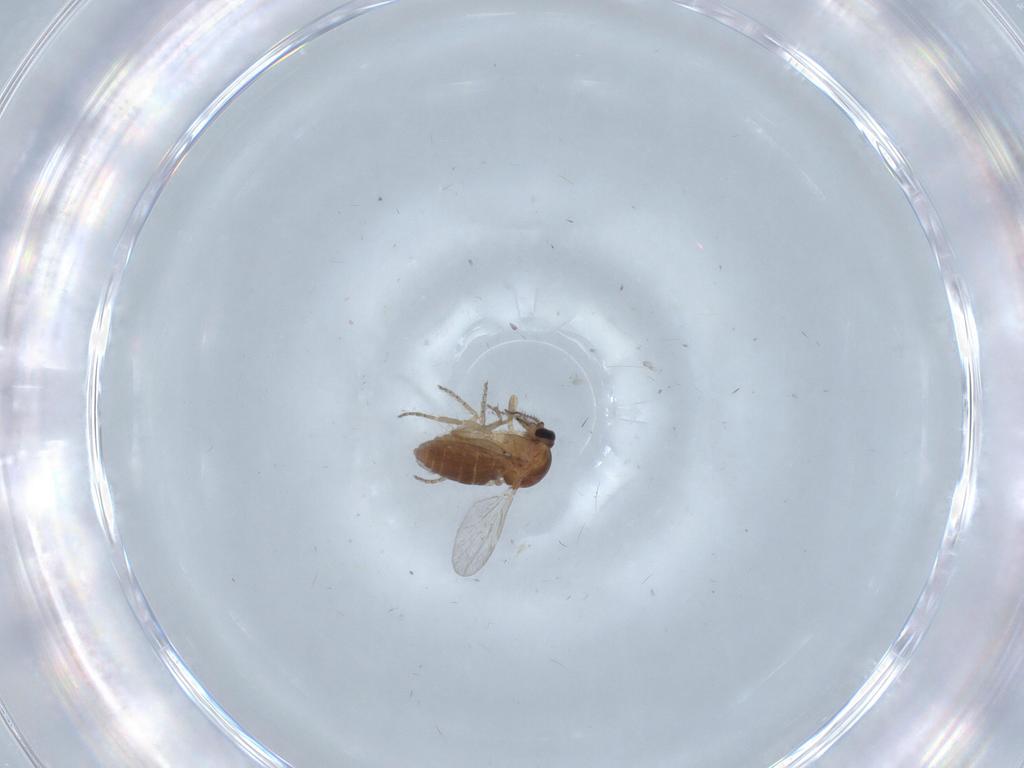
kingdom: Animalia
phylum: Arthropoda
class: Insecta
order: Diptera
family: Ceratopogonidae
